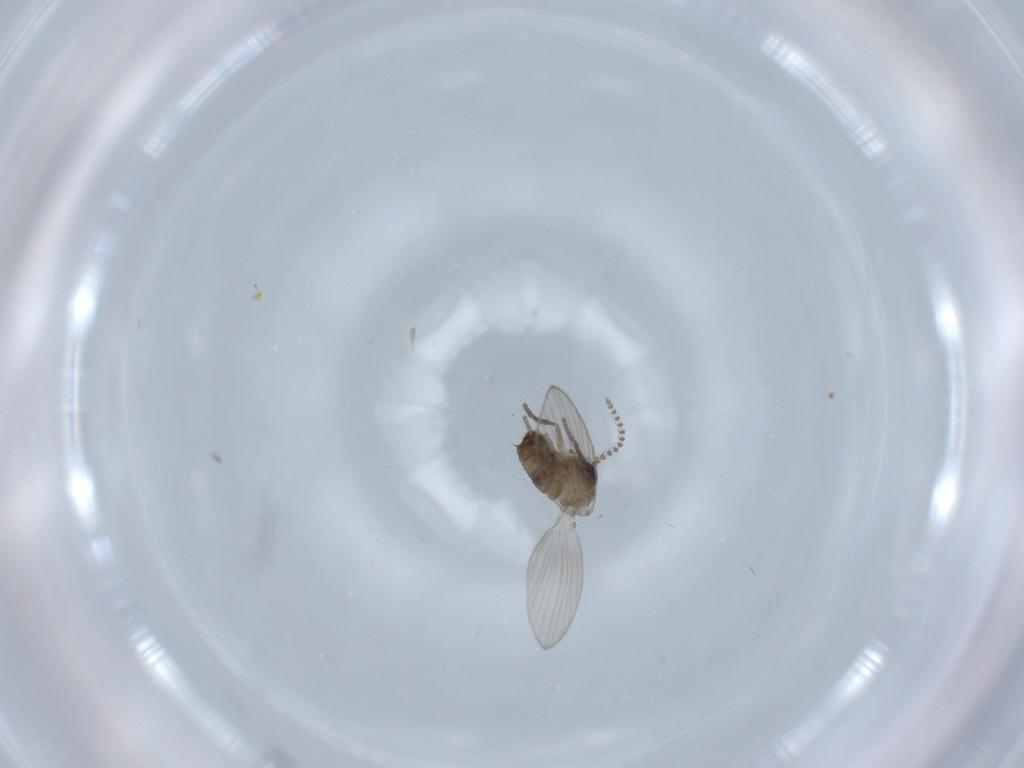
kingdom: Animalia
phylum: Arthropoda
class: Insecta
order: Diptera
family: Psychodidae
